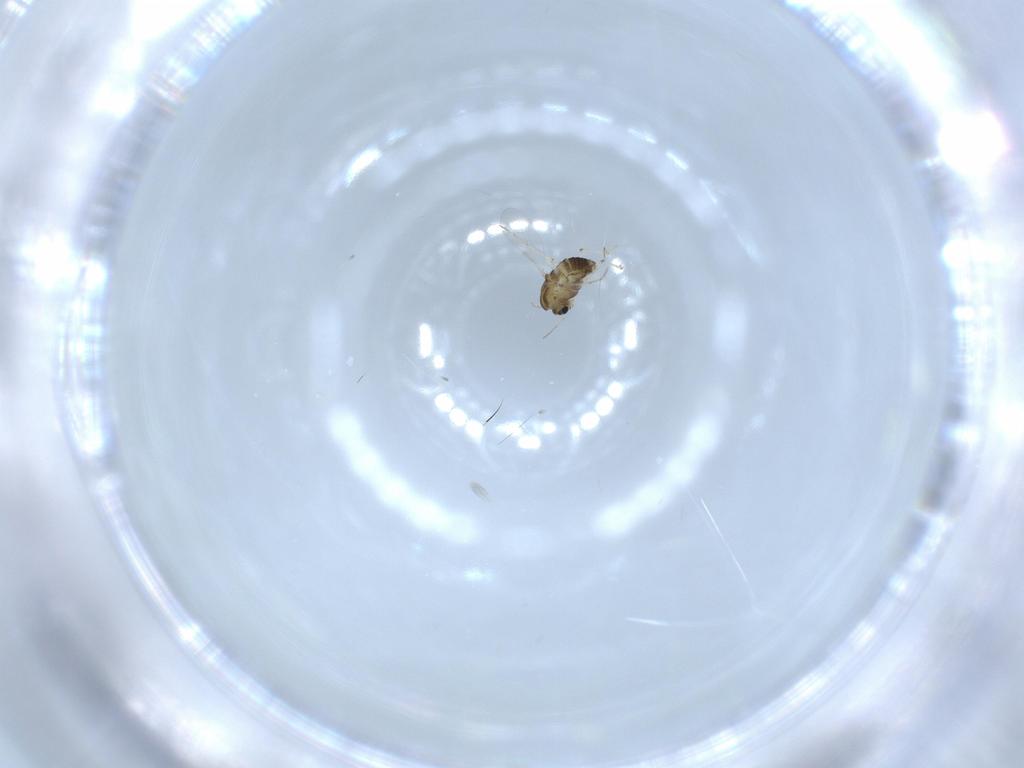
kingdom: Animalia
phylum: Arthropoda
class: Insecta
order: Diptera
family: Chironomidae
